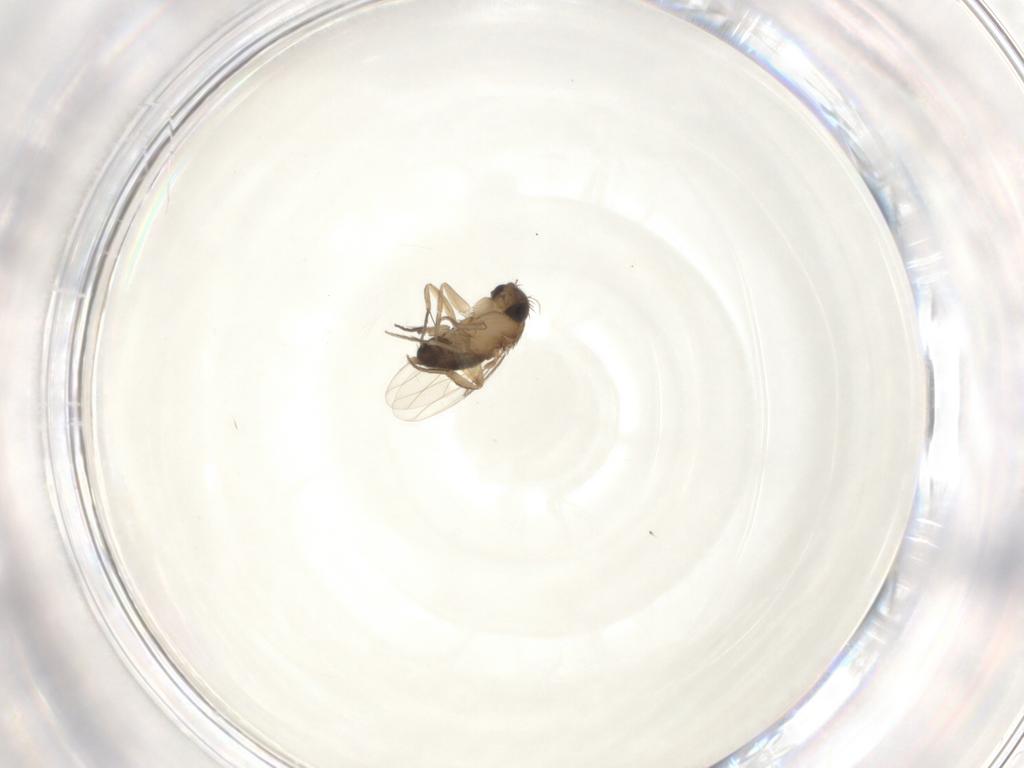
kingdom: Animalia
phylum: Arthropoda
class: Insecta
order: Diptera
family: Phoridae
